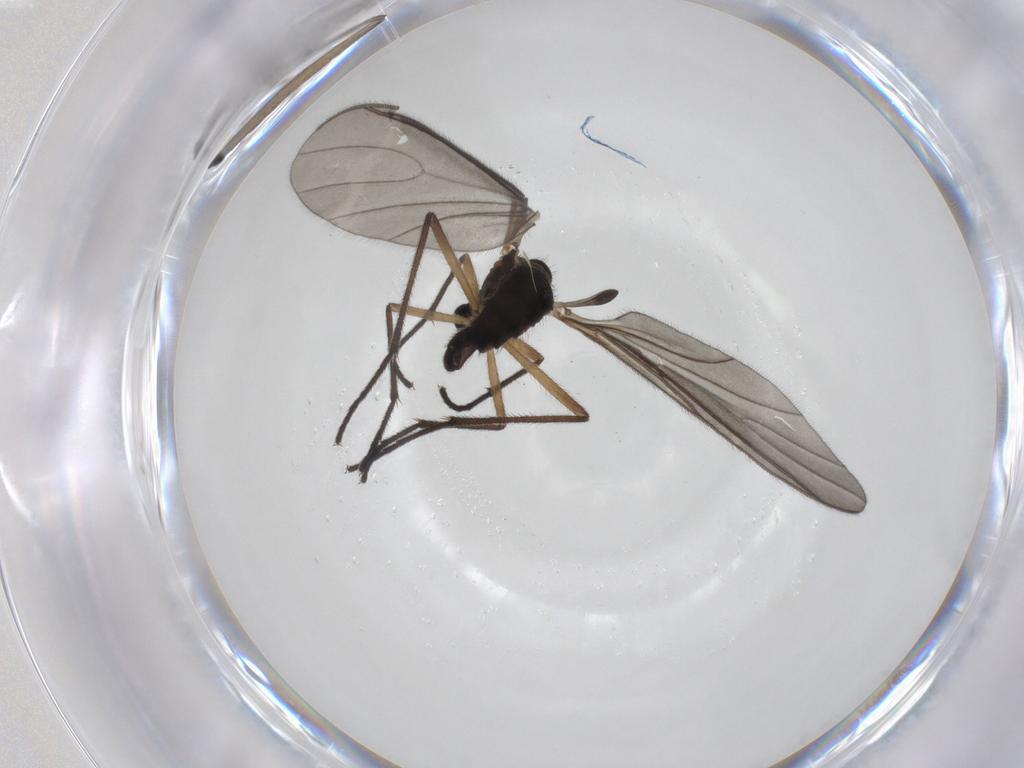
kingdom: Animalia
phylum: Arthropoda
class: Insecta
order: Diptera
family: Sciaridae
